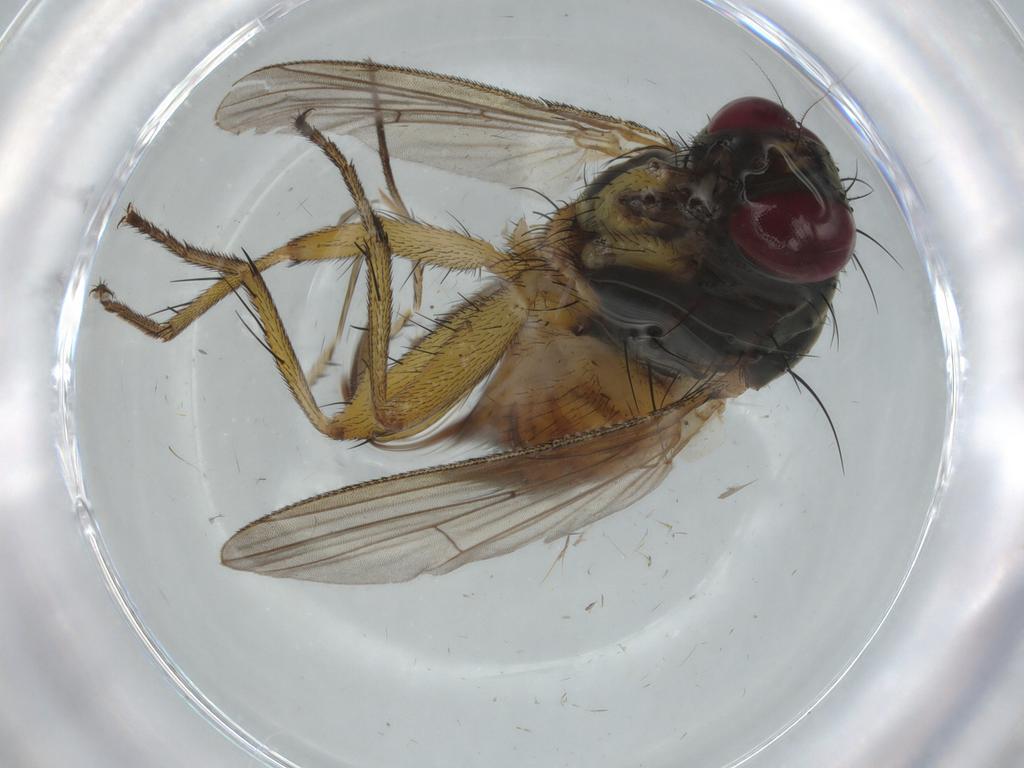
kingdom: Animalia
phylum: Arthropoda
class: Insecta
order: Diptera
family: Muscidae
